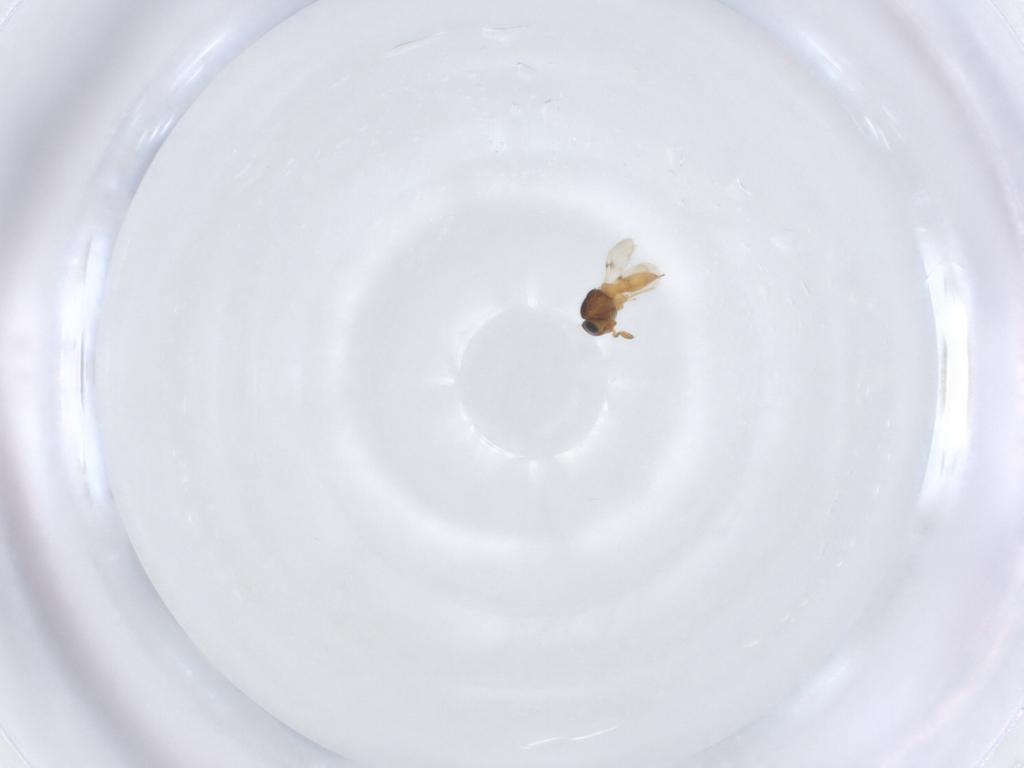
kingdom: Animalia
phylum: Arthropoda
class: Insecta
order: Hymenoptera
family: Scelionidae
